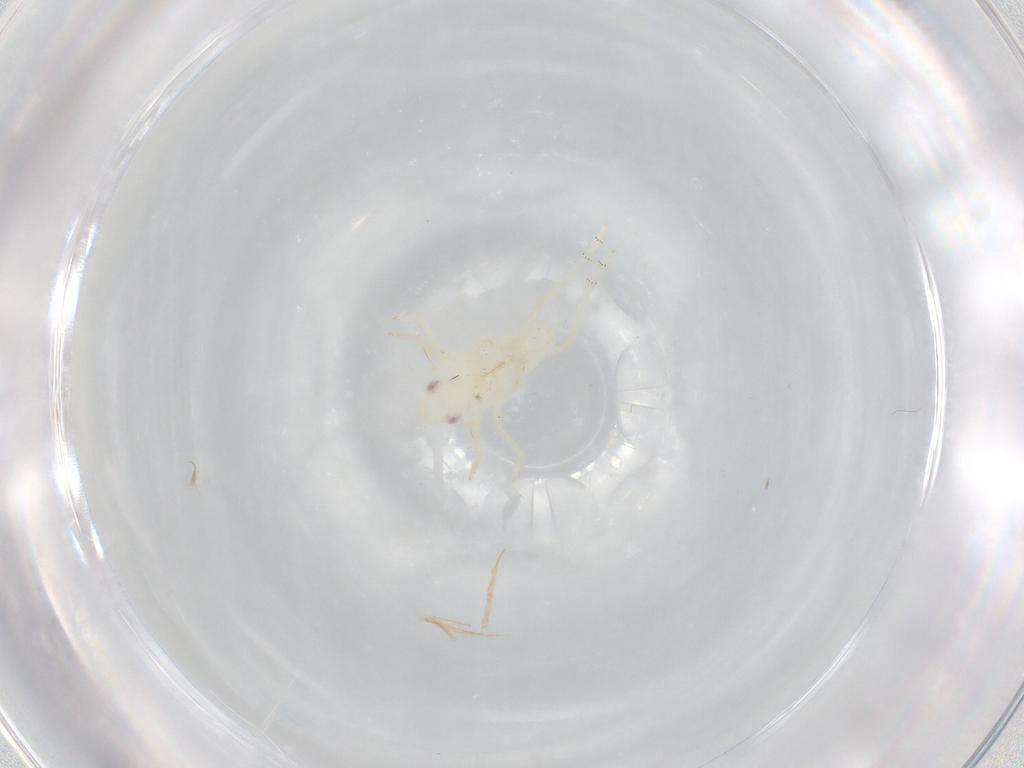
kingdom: Animalia
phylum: Arthropoda
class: Insecta
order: Hemiptera
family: Tropiduchidae
